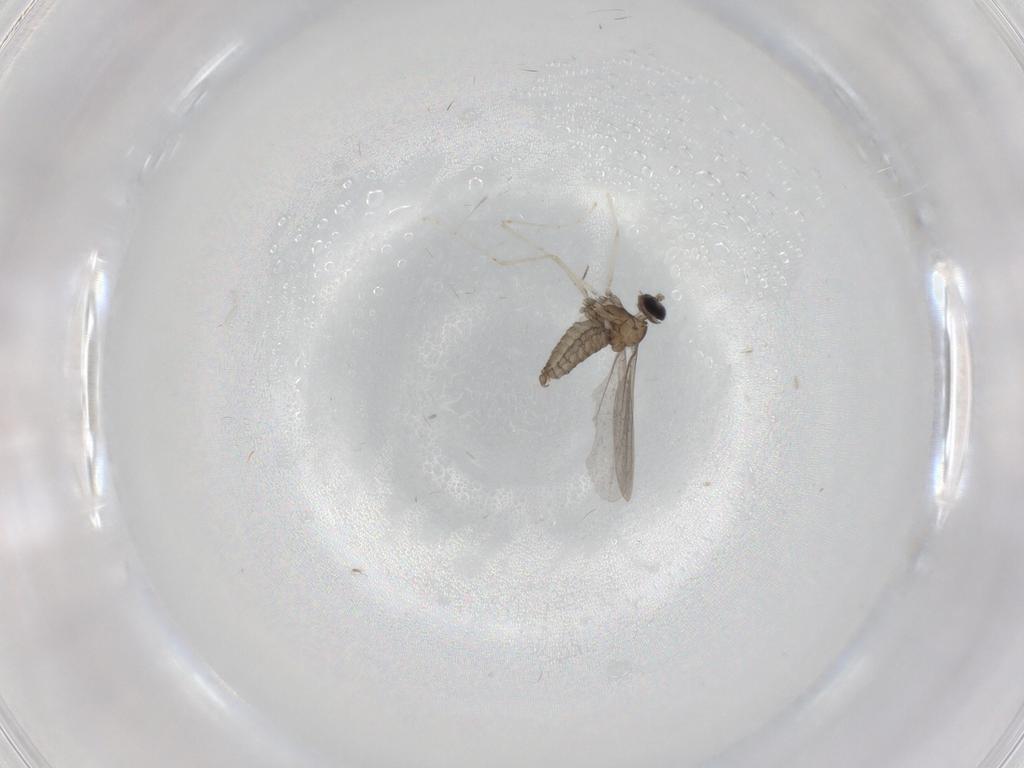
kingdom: Animalia
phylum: Arthropoda
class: Insecta
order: Diptera
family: Cecidomyiidae
